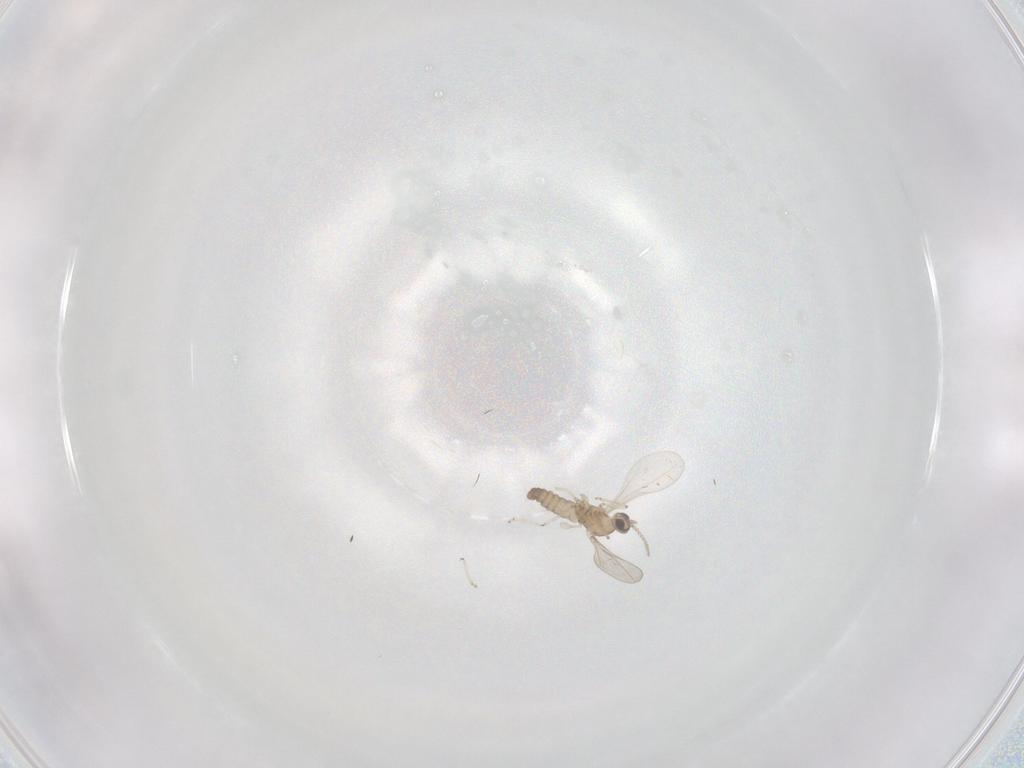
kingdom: Animalia
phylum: Arthropoda
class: Insecta
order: Diptera
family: Cecidomyiidae
